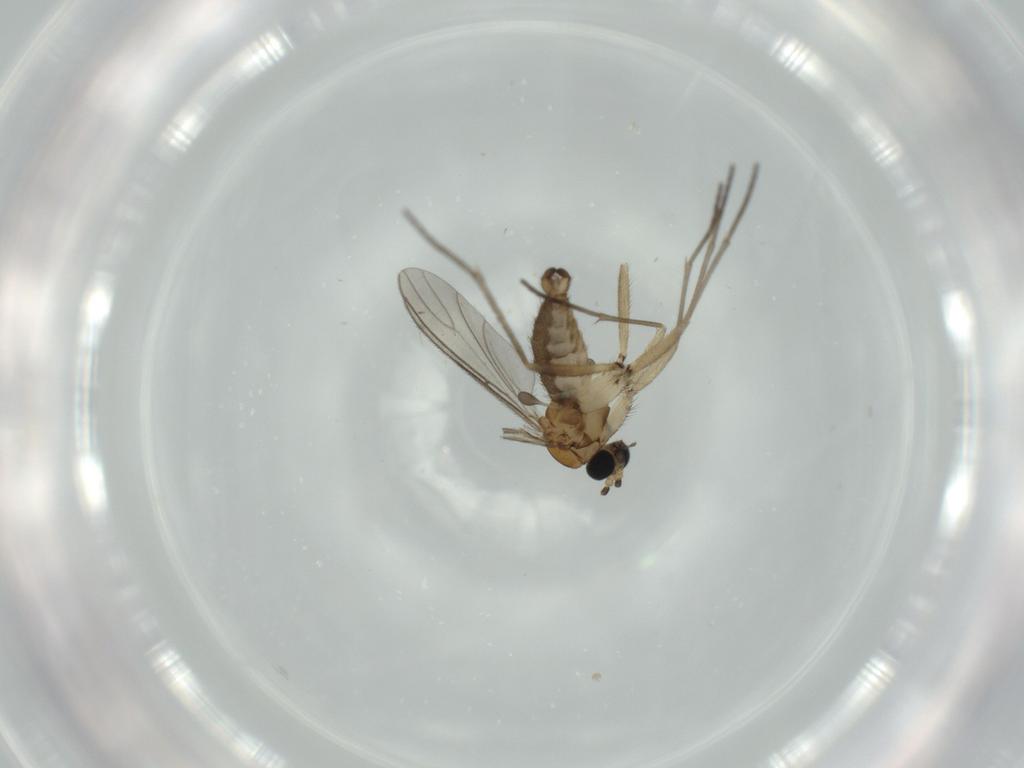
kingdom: Animalia
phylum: Arthropoda
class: Insecta
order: Diptera
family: Sciaridae
